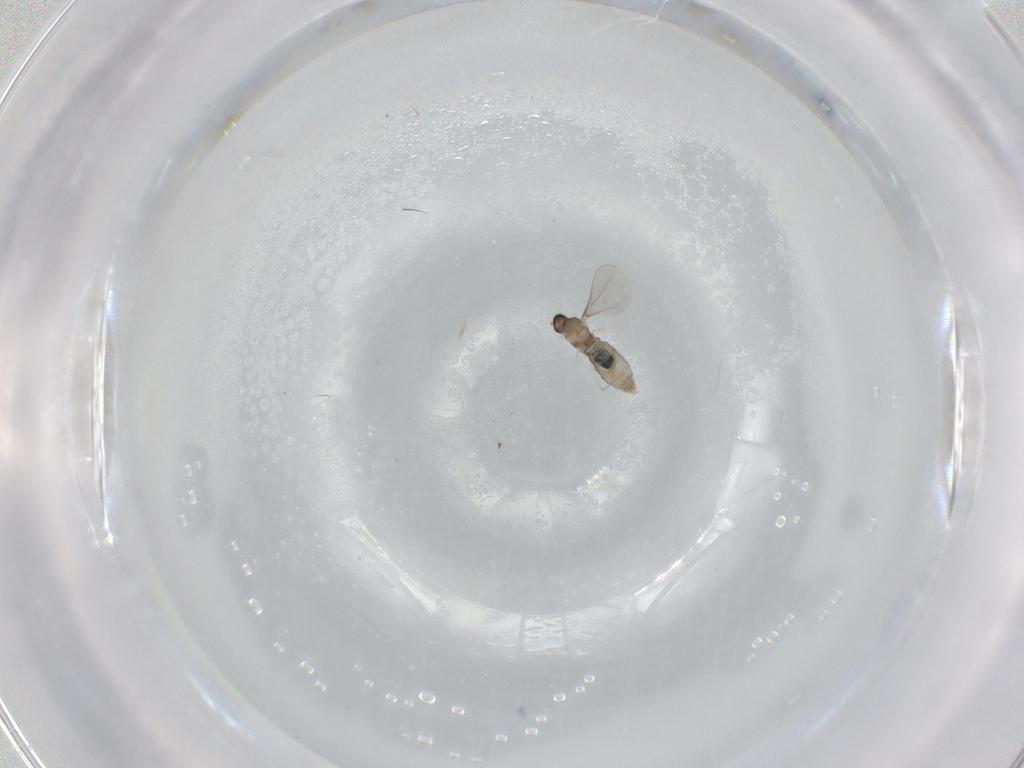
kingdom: Animalia
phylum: Arthropoda
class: Insecta
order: Diptera
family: Cecidomyiidae
